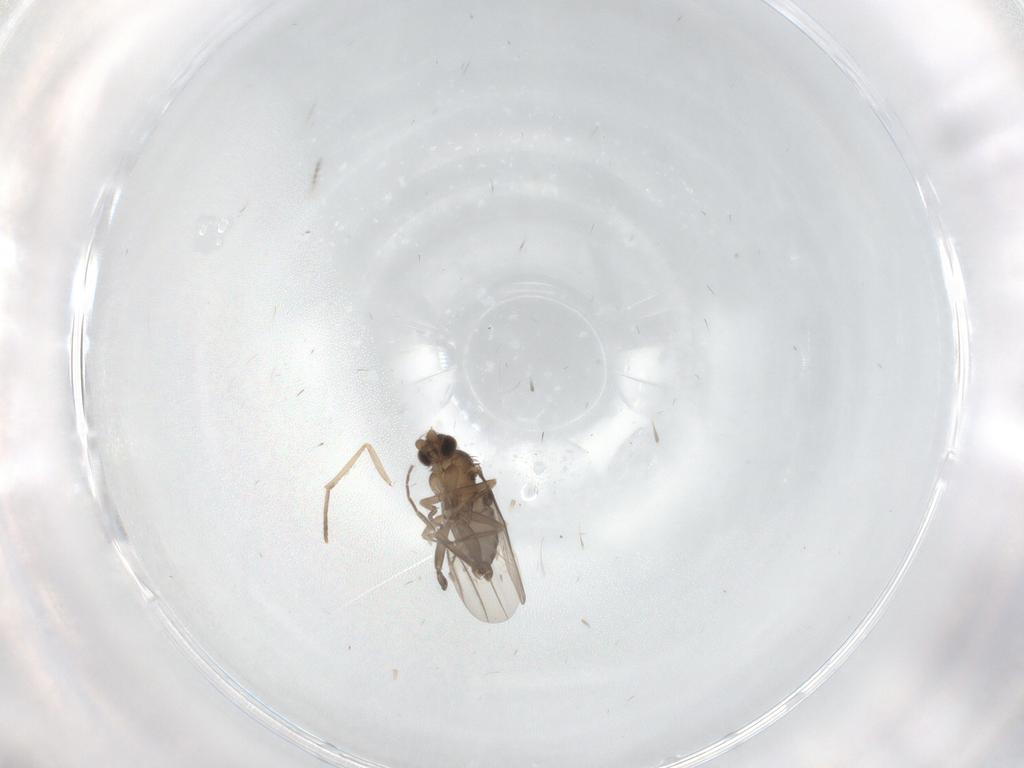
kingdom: Animalia
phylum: Arthropoda
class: Insecta
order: Diptera
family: Phoridae
